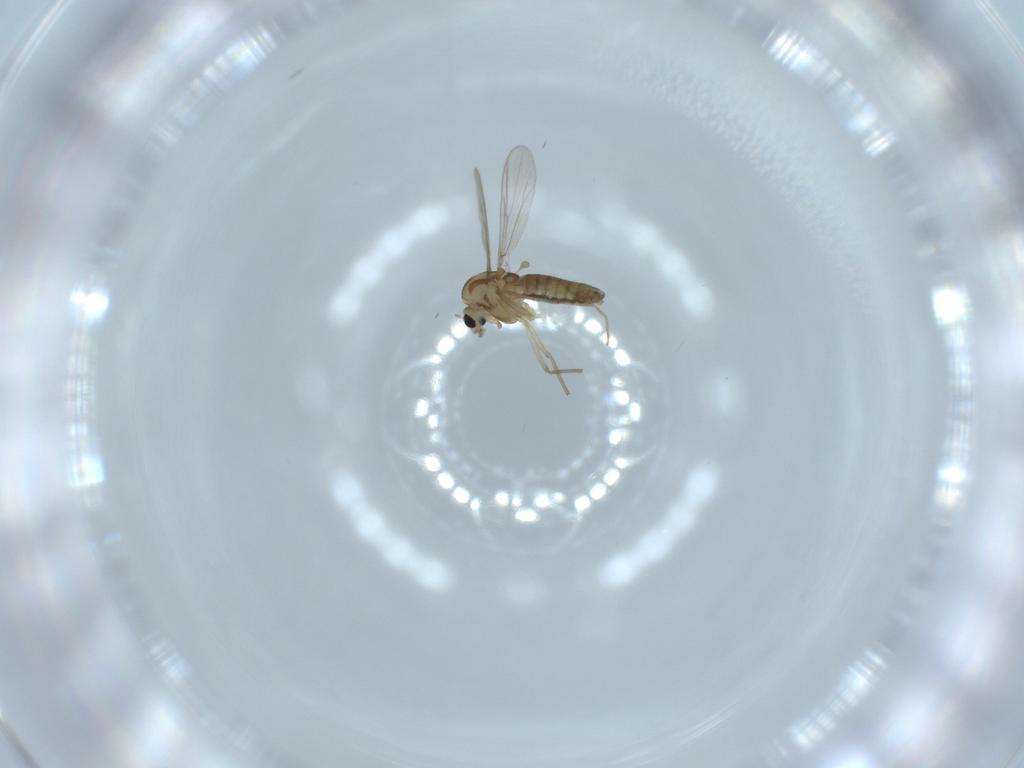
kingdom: Animalia
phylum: Arthropoda
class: Insecta
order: Diptera
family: Chironomidae
